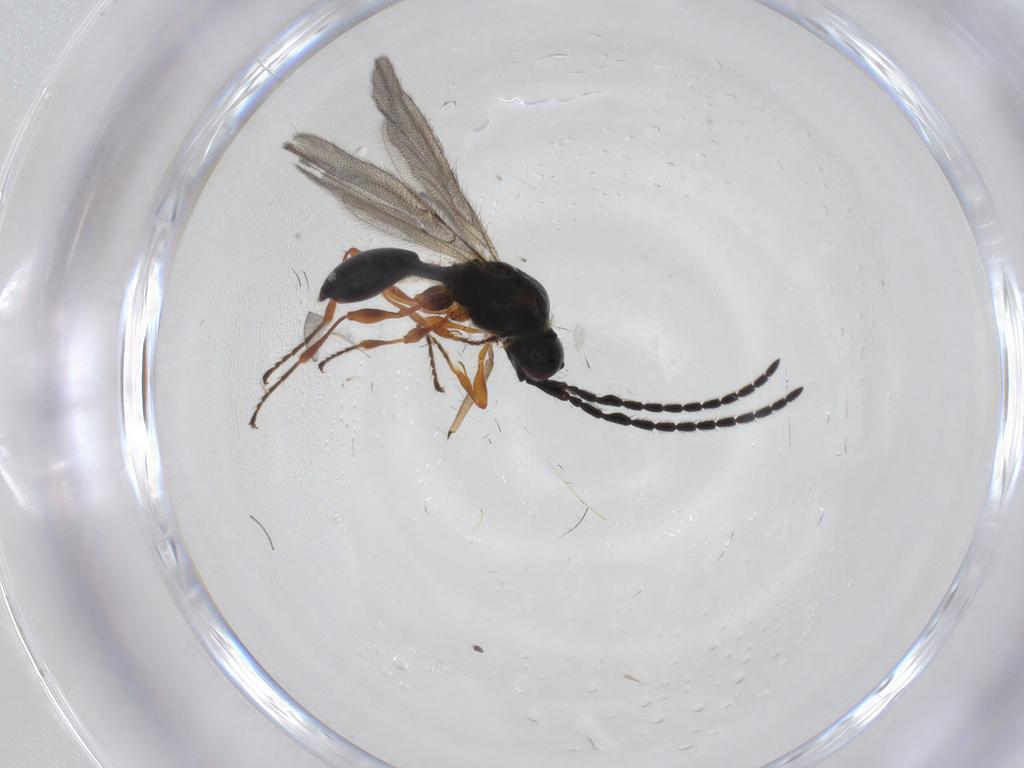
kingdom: Animalia
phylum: Arthropoda
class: Insecta
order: Hymenoptera
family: Diapriidae
